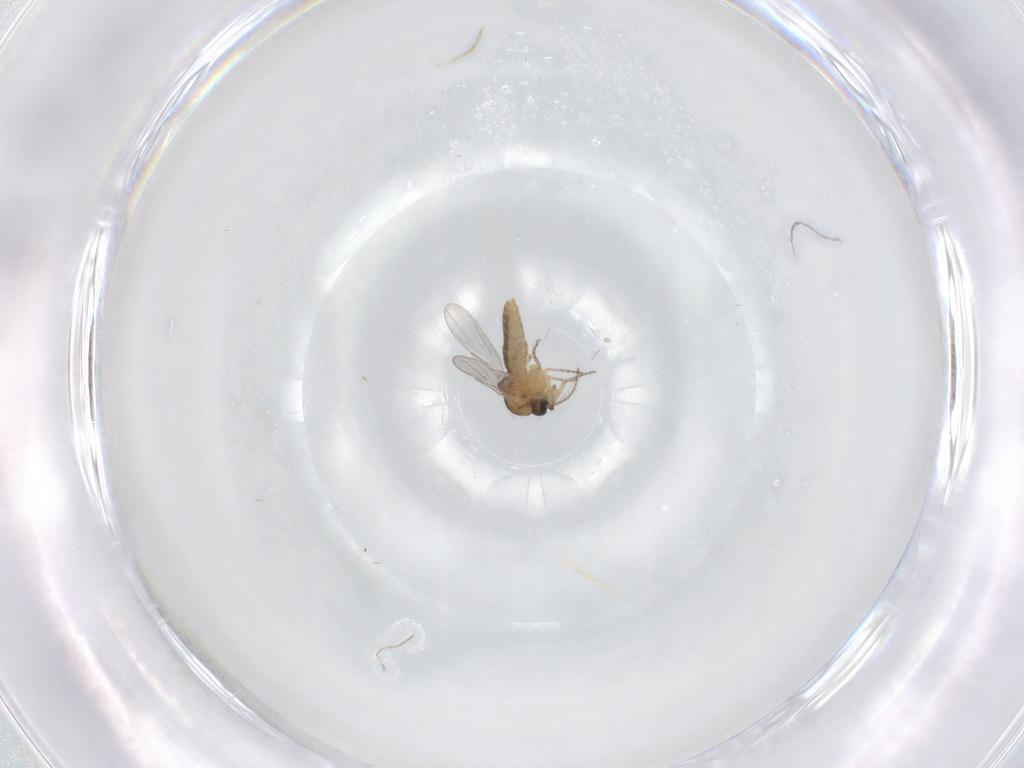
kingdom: Animalia
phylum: Arthropoda
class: Insecta
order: Diptera
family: Ceratopogonidae
